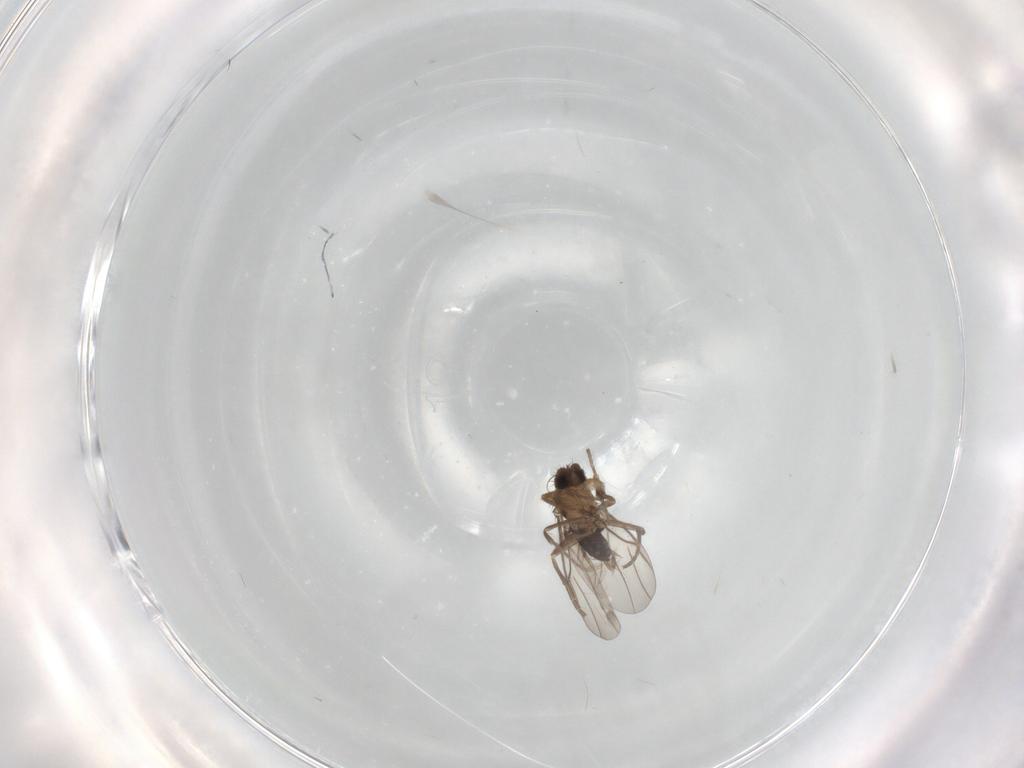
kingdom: Animalia
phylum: Arthropoda
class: Insecta
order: Diptera
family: Phoridae
